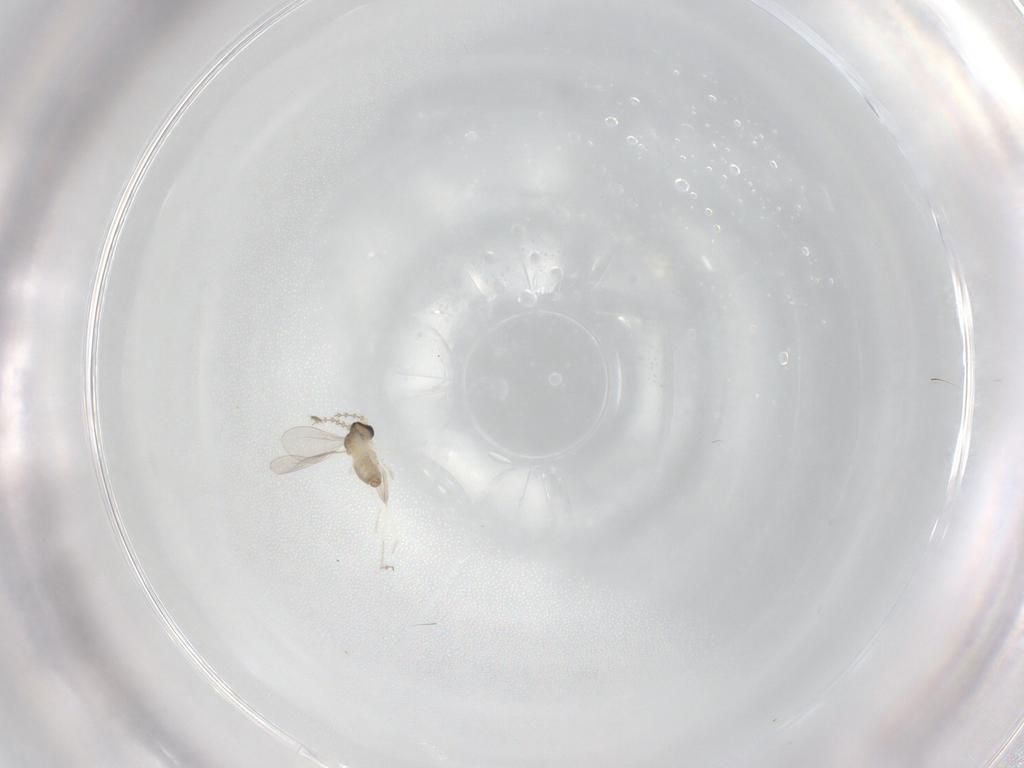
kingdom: Animalia
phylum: Arthropoda
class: Insecta
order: Diptera
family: Cecidomyiidae
